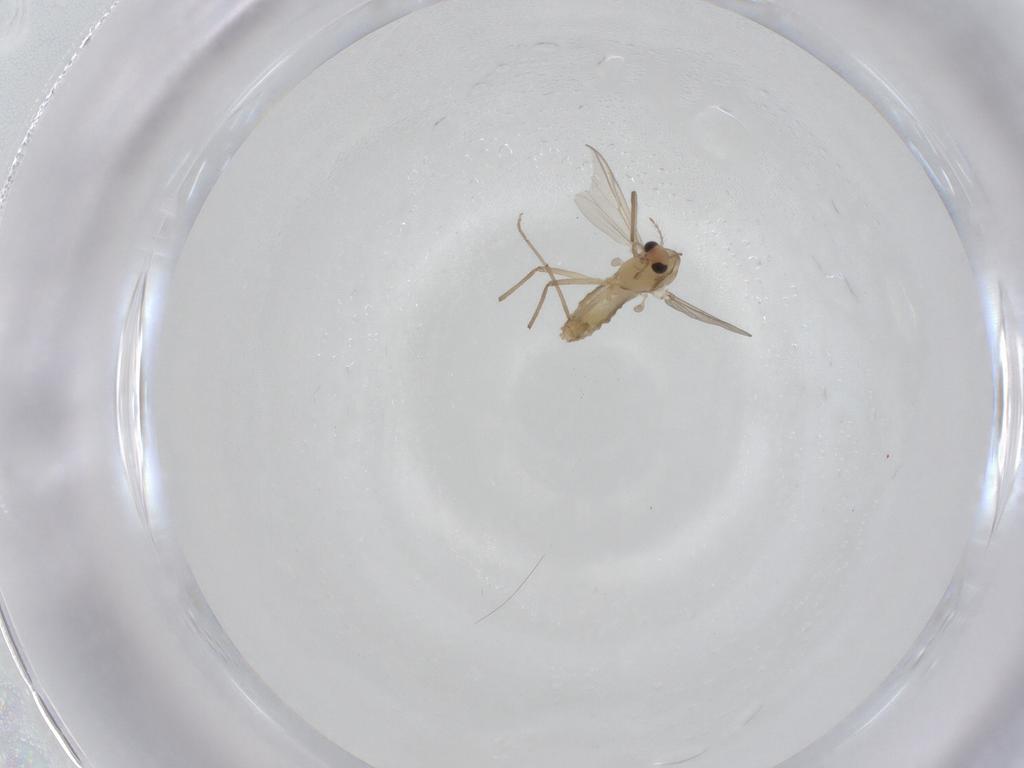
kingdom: Animalia
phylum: Arthropoda
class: Insecta
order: Diptera
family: Chironomidae
